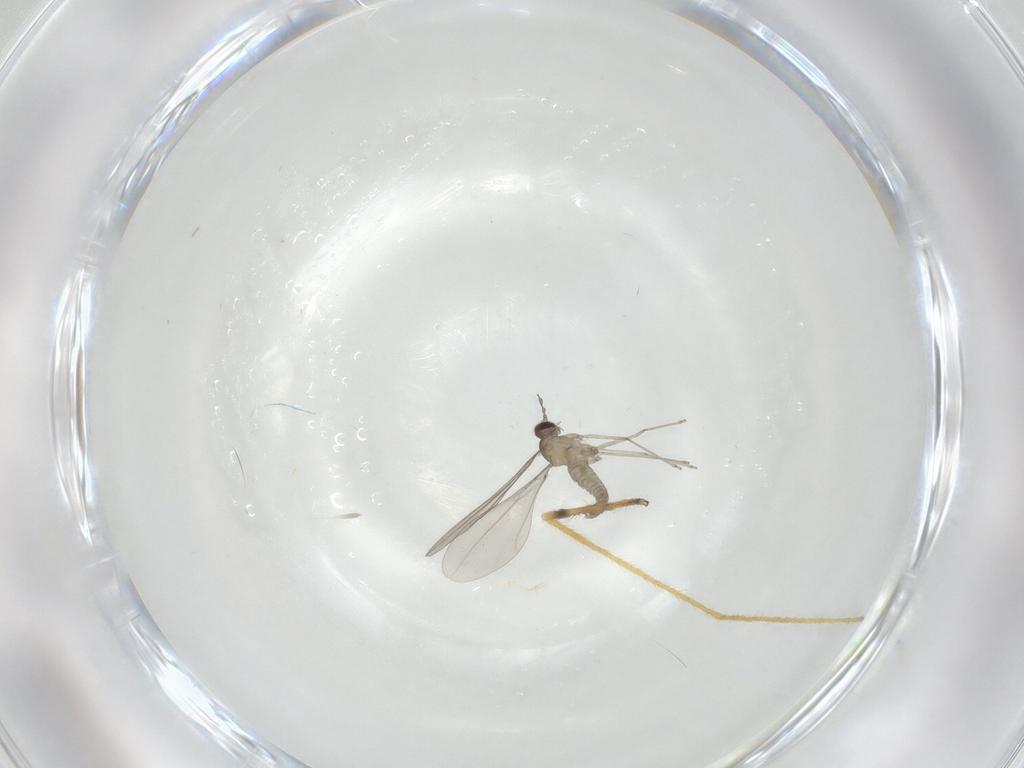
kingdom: Animalia
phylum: Arthropoda
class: Insecta
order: Diptera
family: Cecidomyiidae
